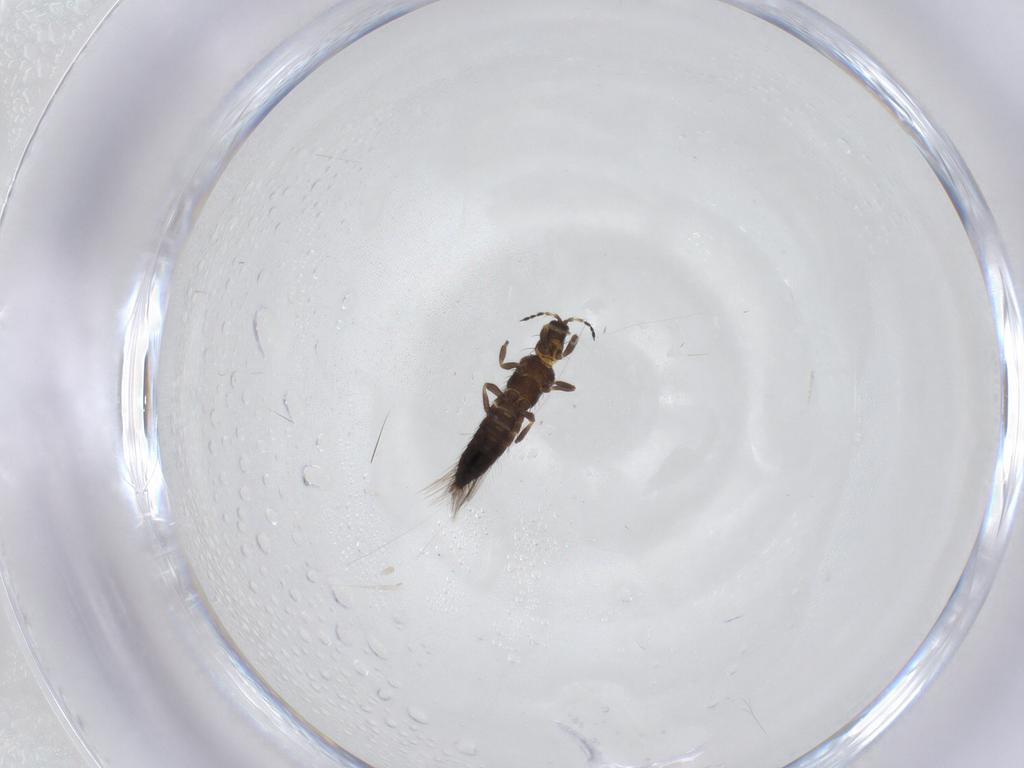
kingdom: Animalia
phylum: Arthropoda
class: Insecta
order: Thysanoptera
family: Thripidae
